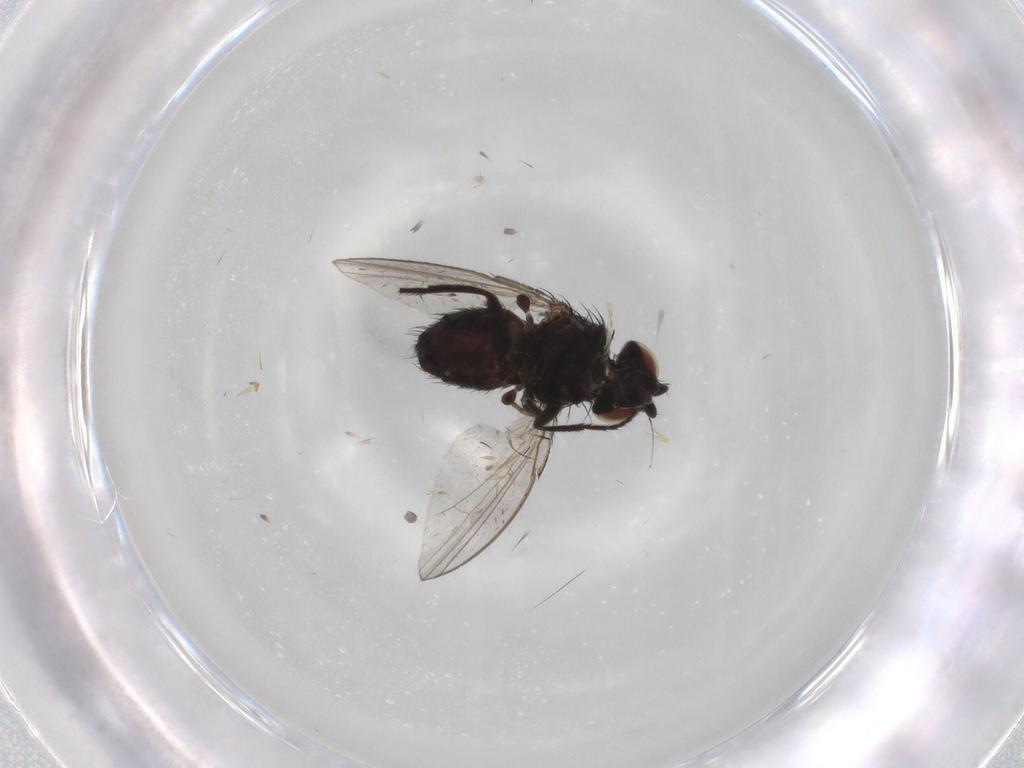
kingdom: Animalia
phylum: Arthropoda
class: Insecta
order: Diptera
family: Milichiidae
